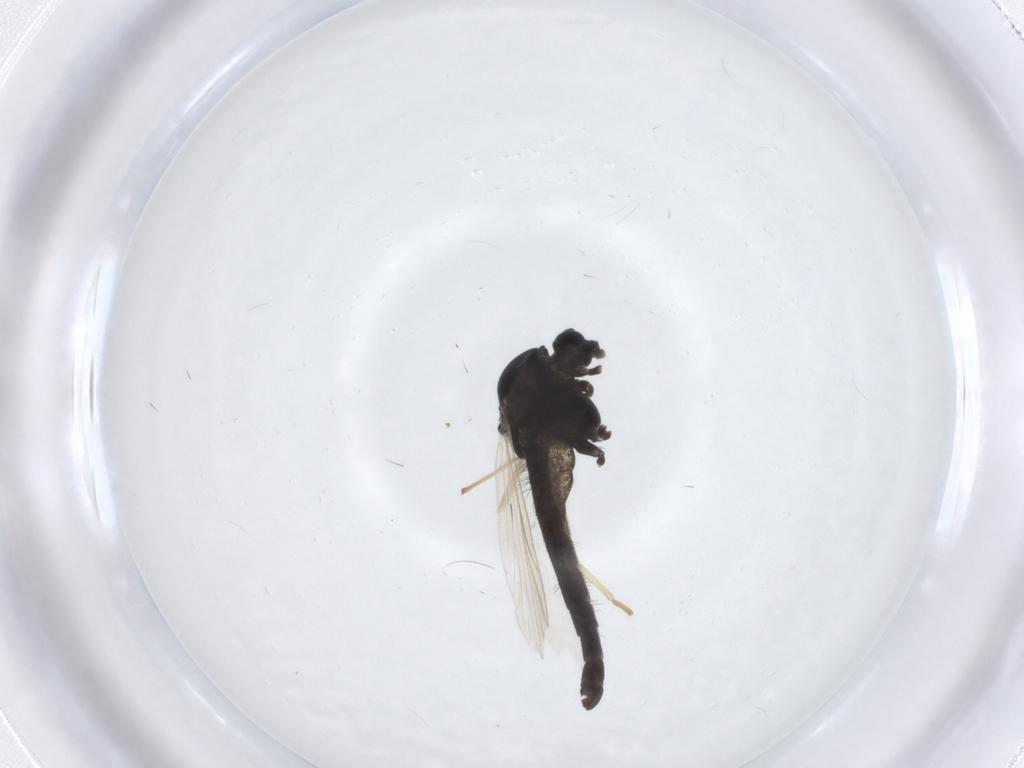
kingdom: Animalia
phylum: Arthropoda
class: Insecta
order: Diptera
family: Chironomidae
